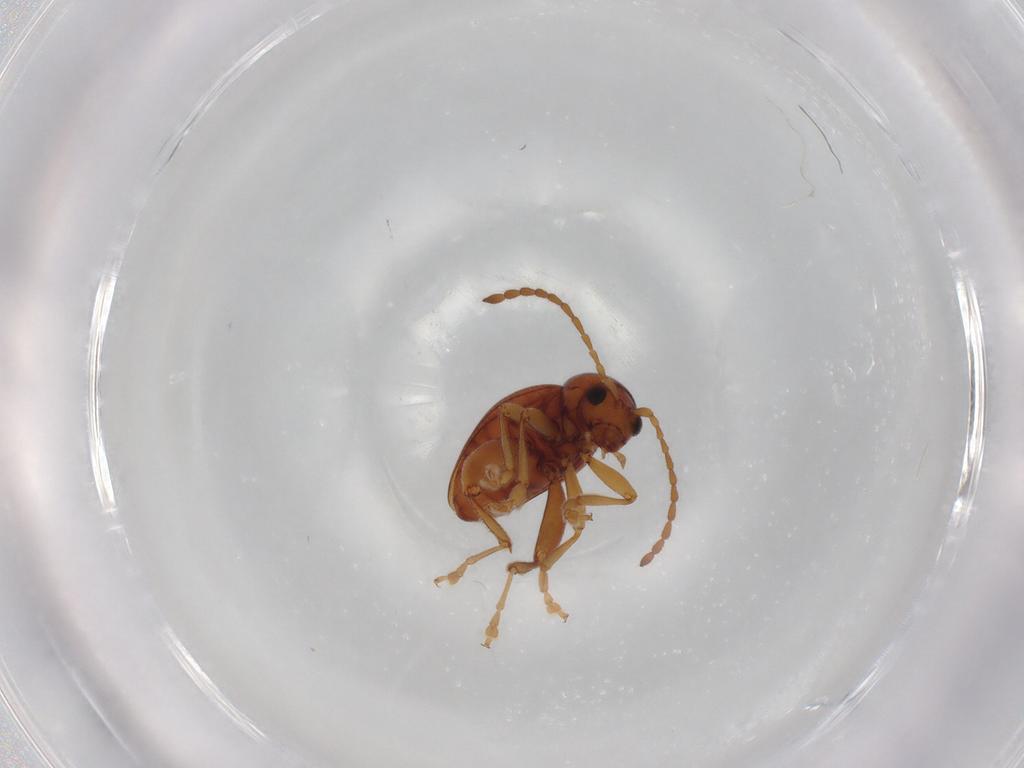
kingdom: Animalia
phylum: Arthropoda
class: Insecta
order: Coleoptera
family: Chrysomelidae
